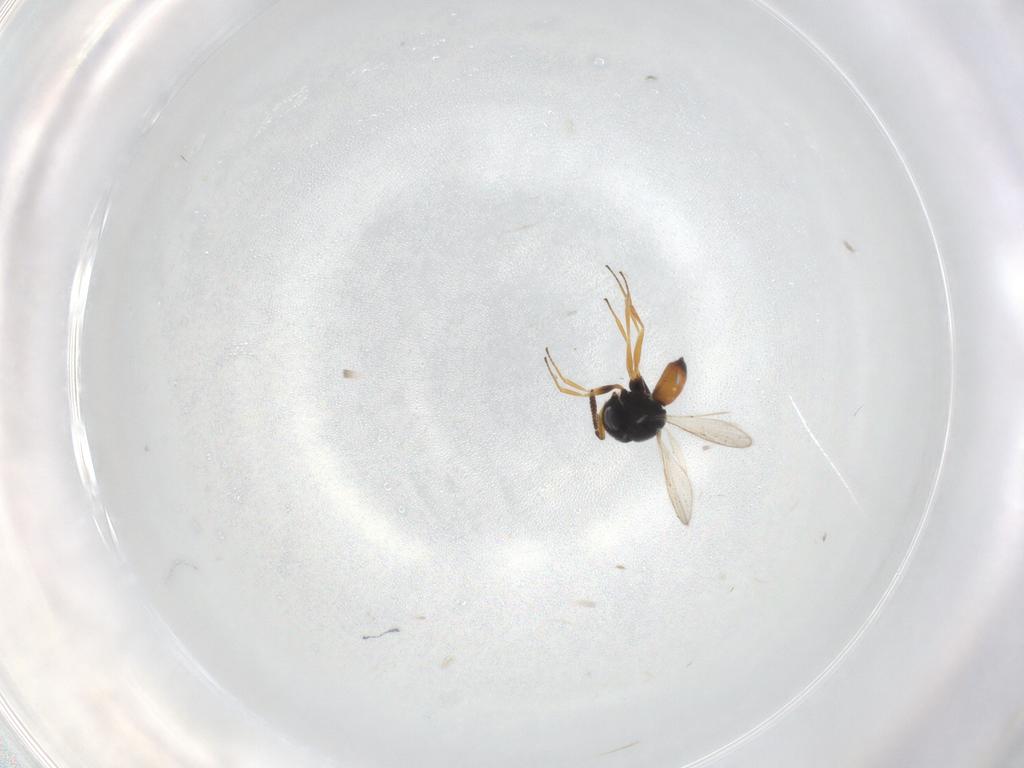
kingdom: Animalia
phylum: Arthropoda
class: Insecta
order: Hymenoptera
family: Scelionidae
